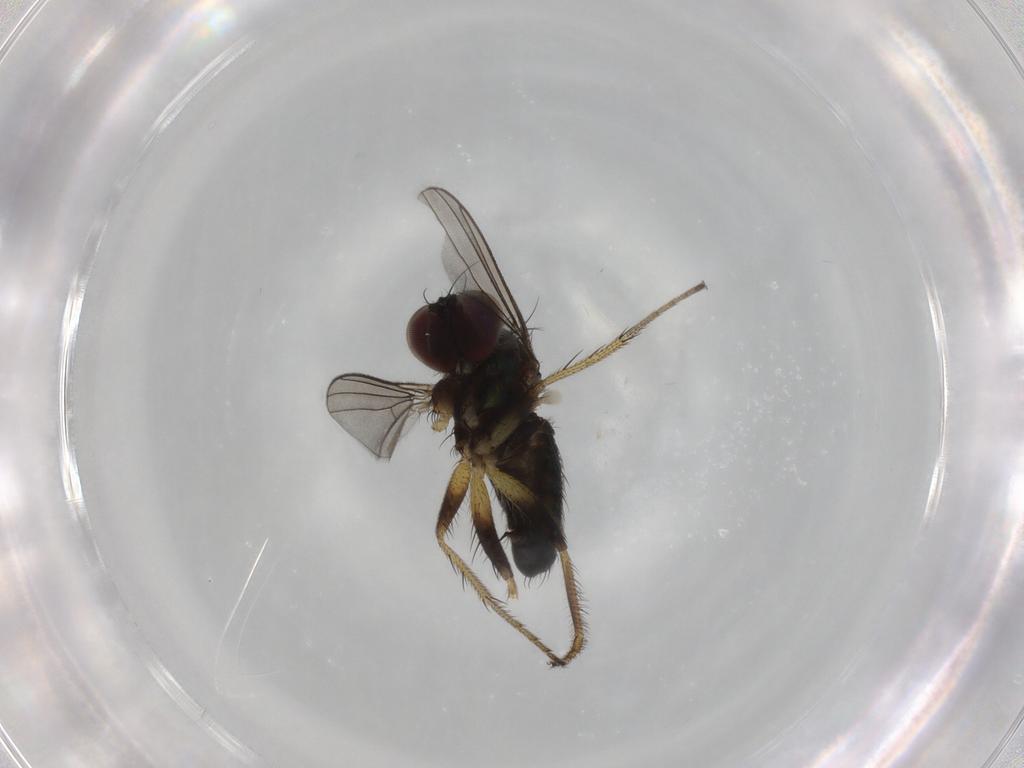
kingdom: Animalia
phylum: Arthropoda
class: Insecta
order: Diptera
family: Dolichopodidae
